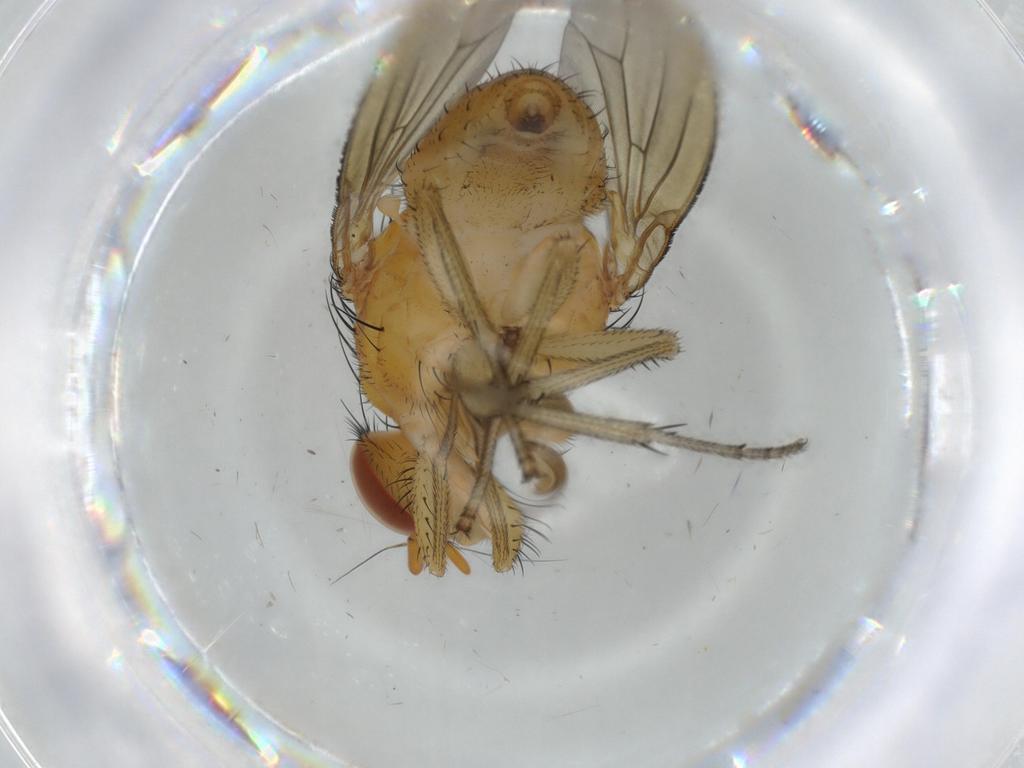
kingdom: Animalia
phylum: Arthropoda
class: Insecta
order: Diptera
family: Lauxaniidae
